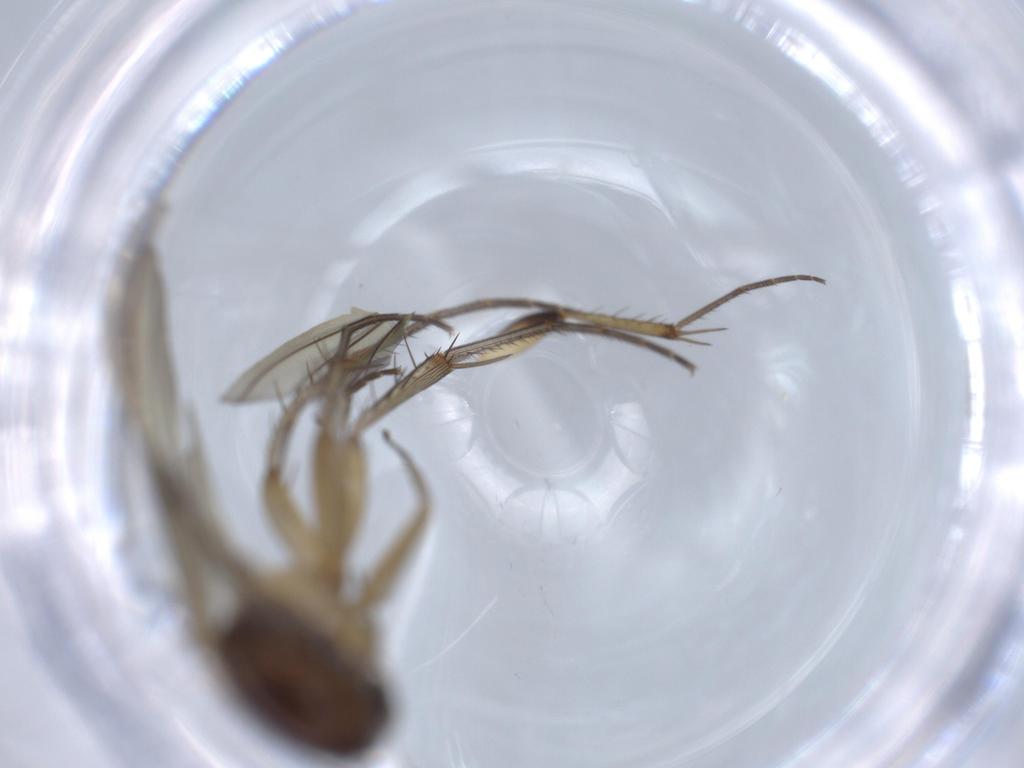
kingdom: Animalia
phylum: Arthropoda
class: Insecta
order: Diptera
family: Mycetophilidae
